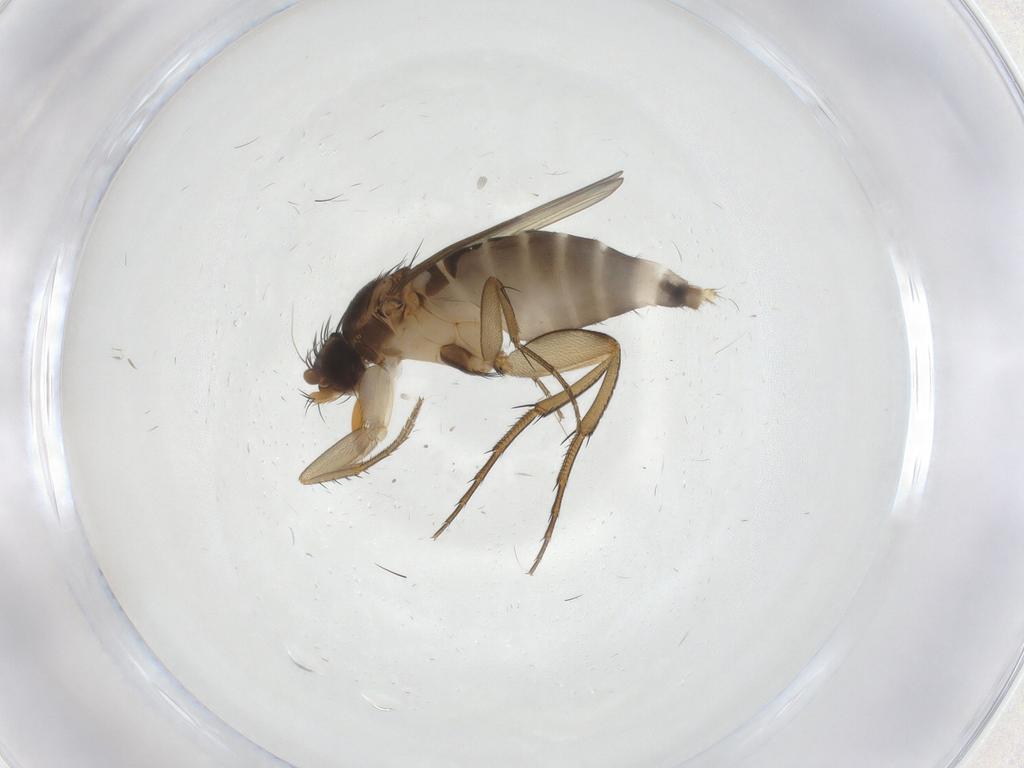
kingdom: Animalia
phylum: Arthropoda
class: Insecta
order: Diptera
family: Phoridae
